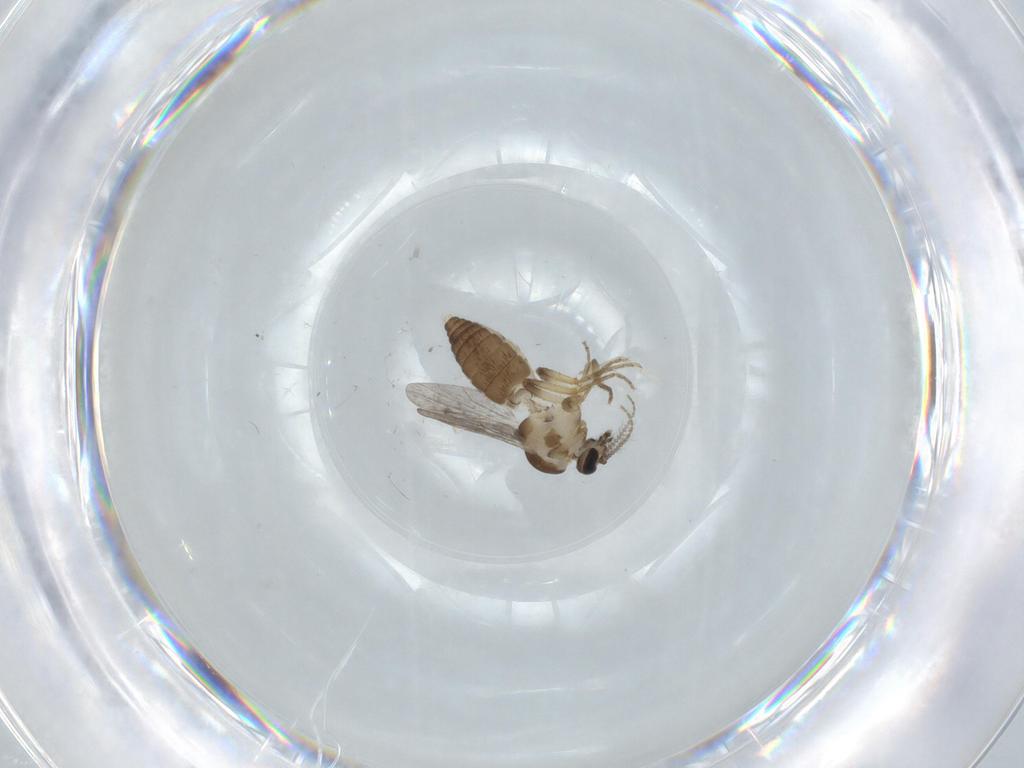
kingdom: Animalia
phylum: Arthropoda
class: Insecta
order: Diptera
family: Ceratopogonidae
